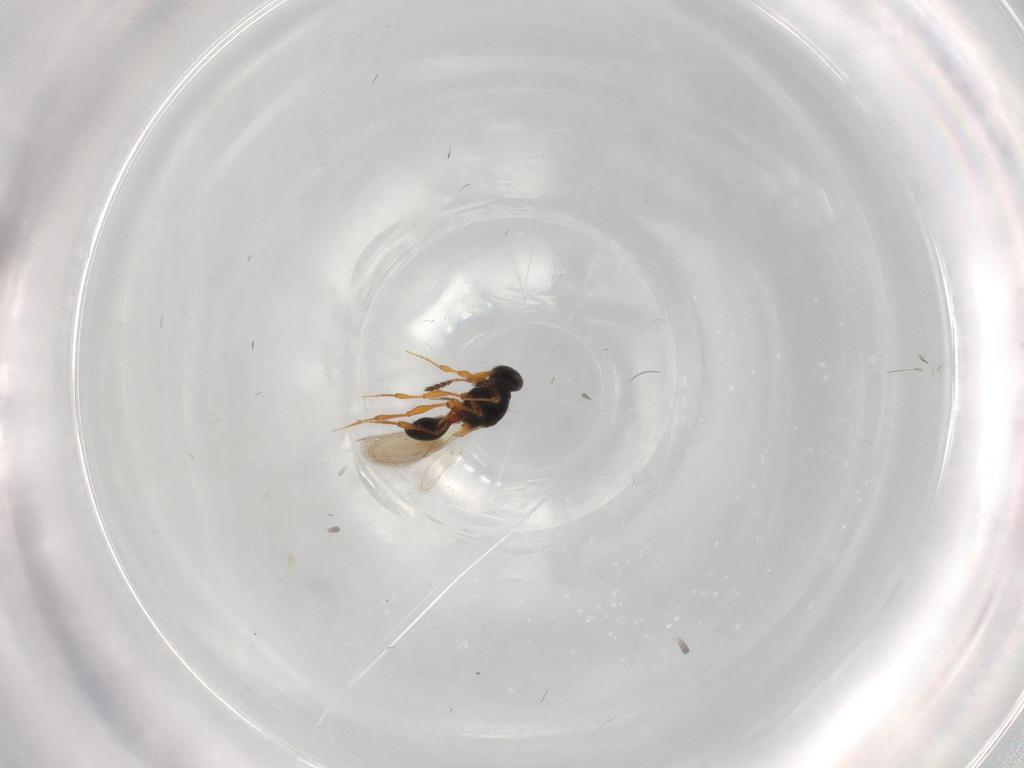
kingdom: Animalia
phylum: Arthropoda
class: Insecta
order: Hymenoptera
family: Platygastridae
